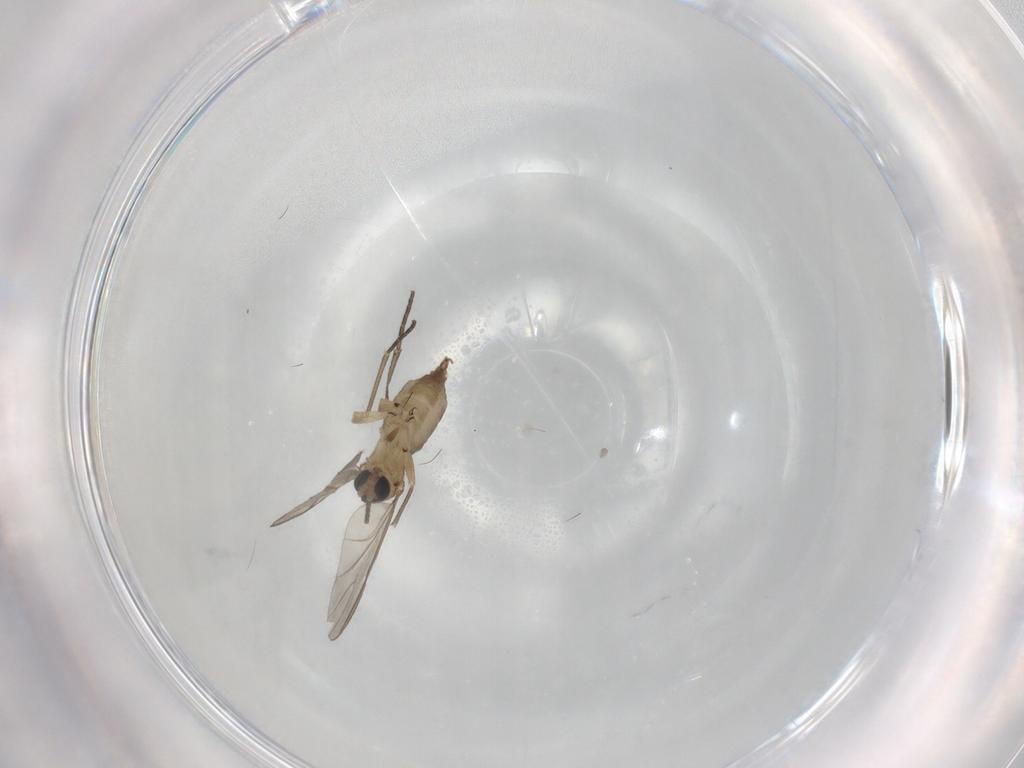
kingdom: Animalia
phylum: Arthropoda
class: Insecta
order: Diptera
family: Sciaridae
